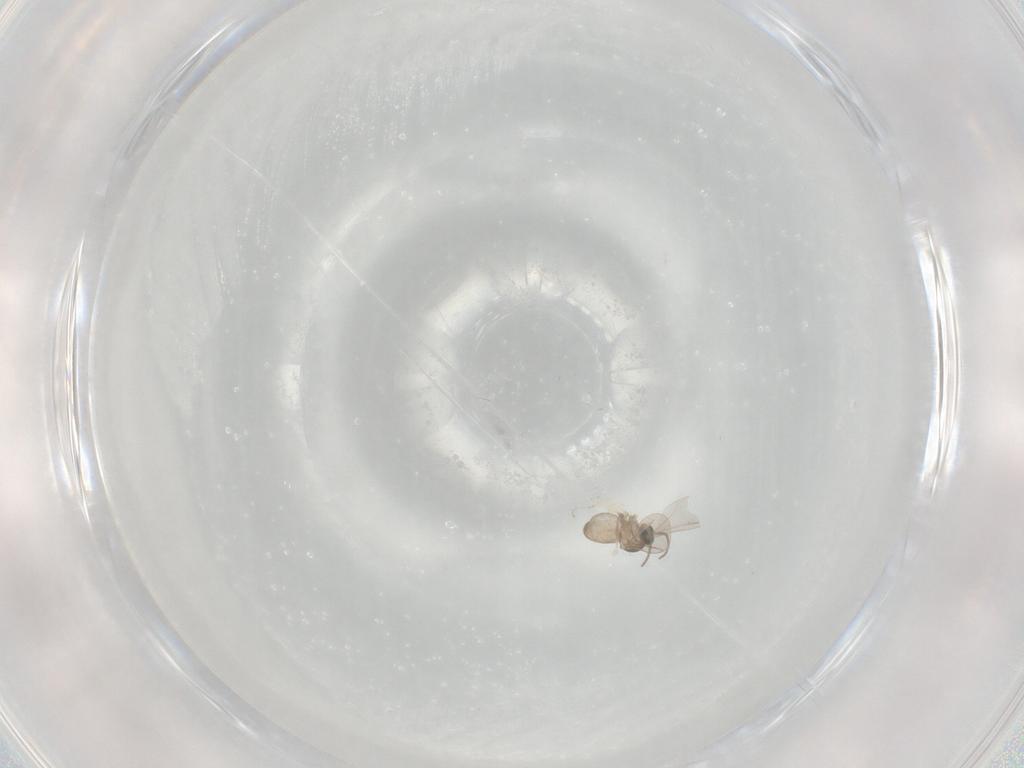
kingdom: Animalia
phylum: Arthropoda
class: Insecta
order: Diptera
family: Cecidomyiidae
